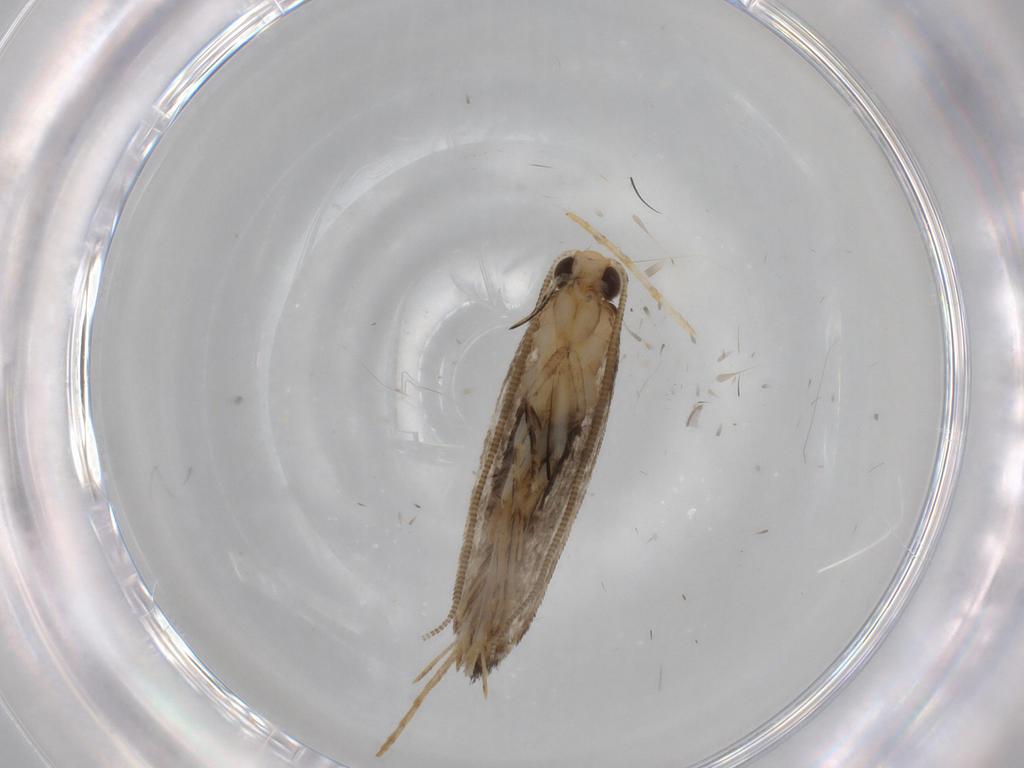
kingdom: Animalia
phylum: Arthropoda
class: Insecta
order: Lepidoptera
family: Tineidae
